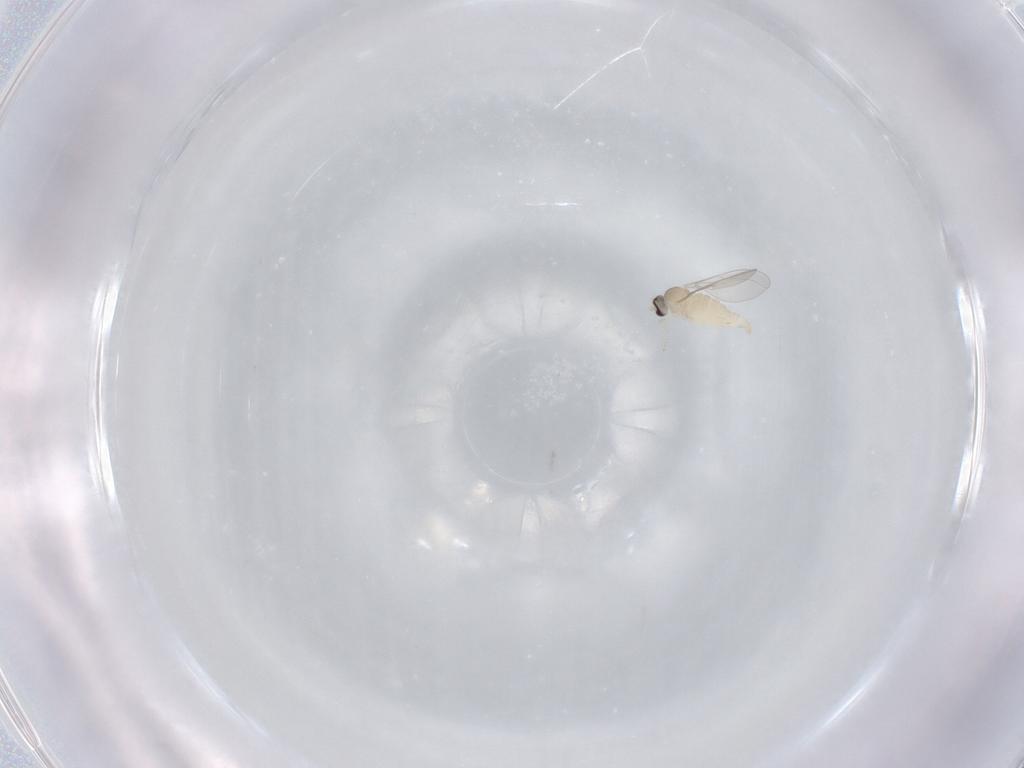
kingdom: Animalia
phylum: Arthropoda
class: Insecta
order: Diptera
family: Cecidomyiidae
